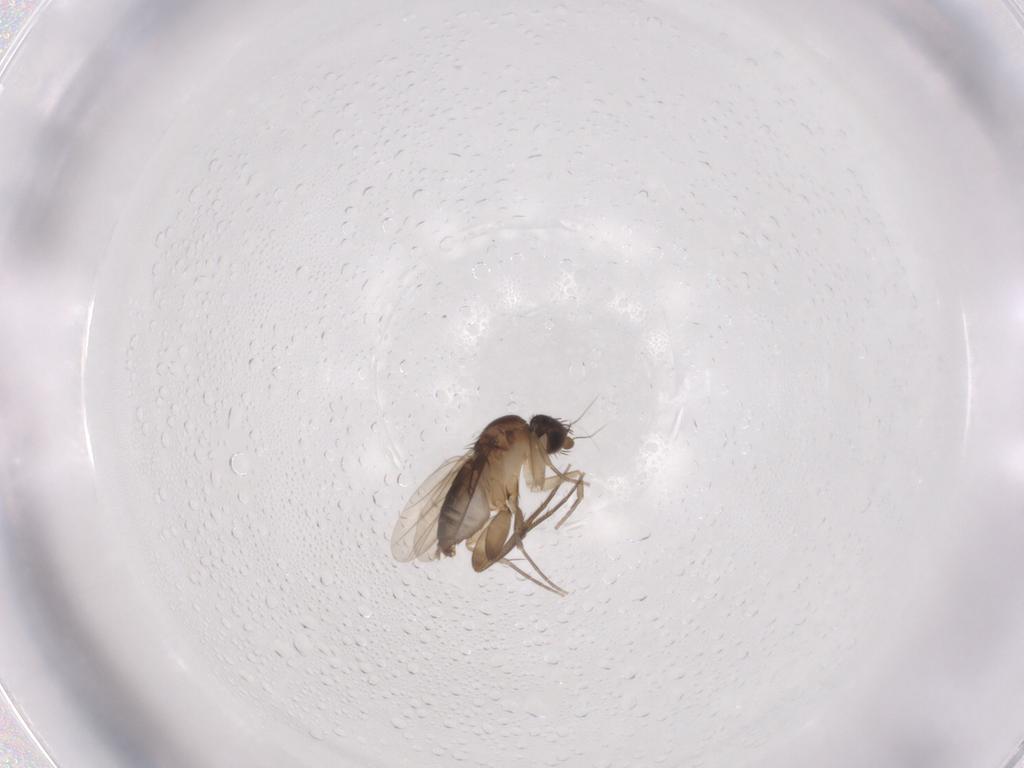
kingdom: Animalia
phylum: Arthropoda
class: Insecta
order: Diptera
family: Phoridae
